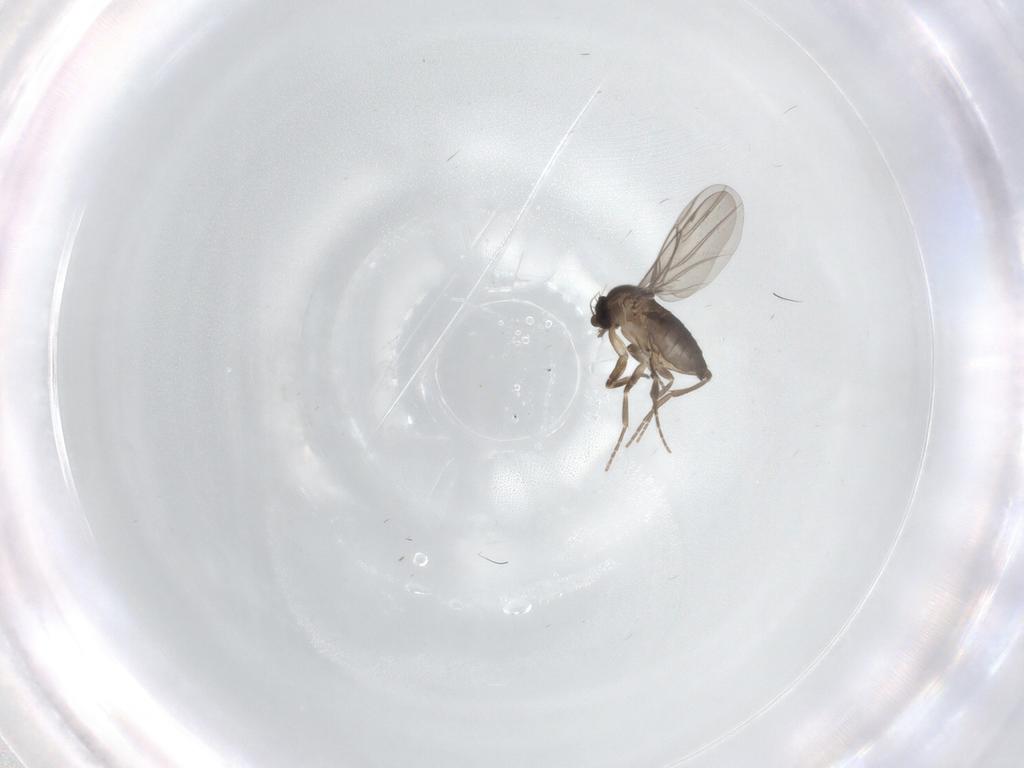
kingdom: Animalia
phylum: Arthropoda
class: Insecta
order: Diptera
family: Phoridae
